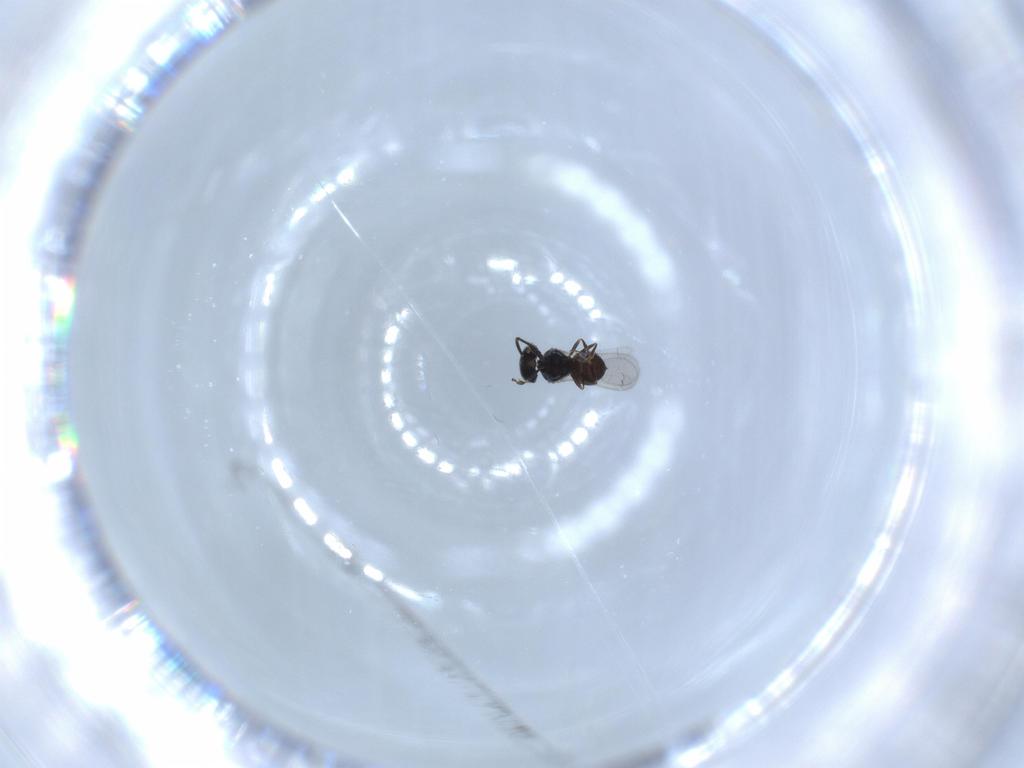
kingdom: Animalia
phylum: Arthropoda
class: Insecta
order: Hymenoptera
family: Scelionidae
